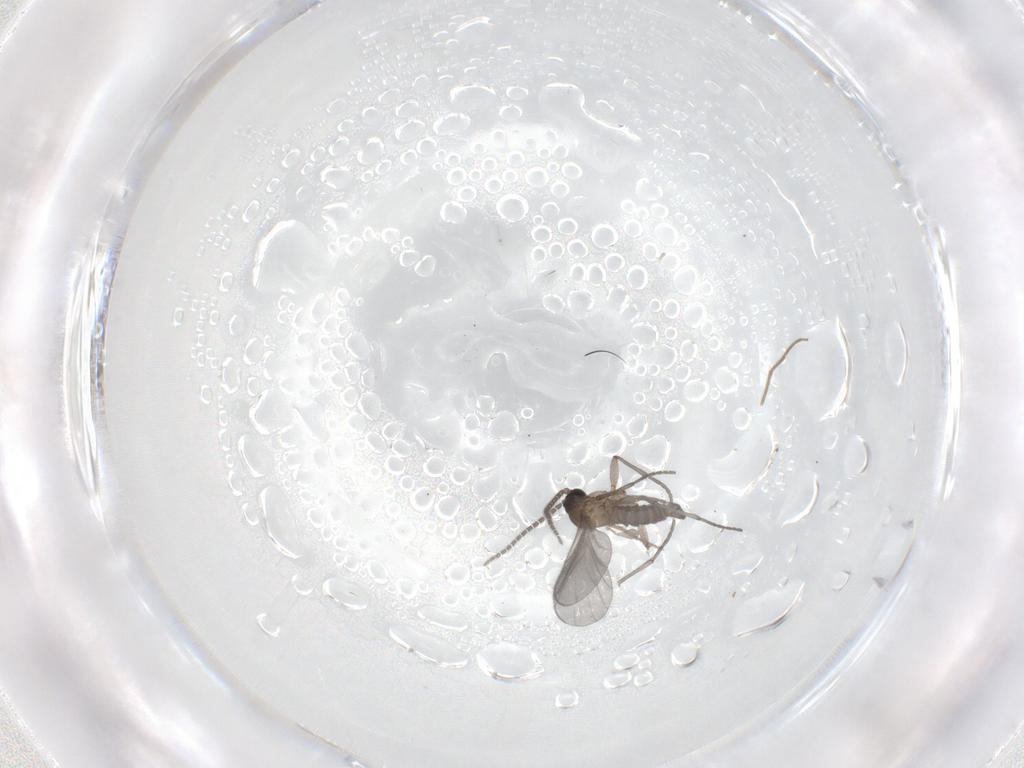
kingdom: Animalia
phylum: Arthropoda
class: Insecta
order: Diptera
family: Sciaridae
